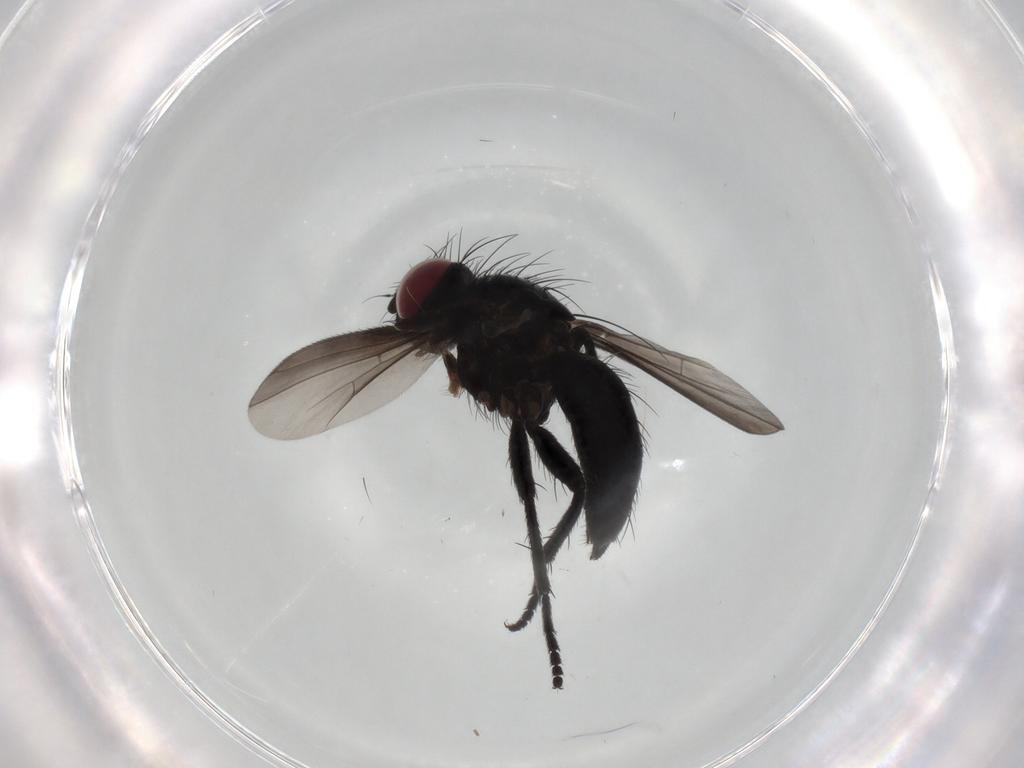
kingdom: Animalia
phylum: Arthropoda
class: Insecta
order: Diptera
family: Tachinidae
